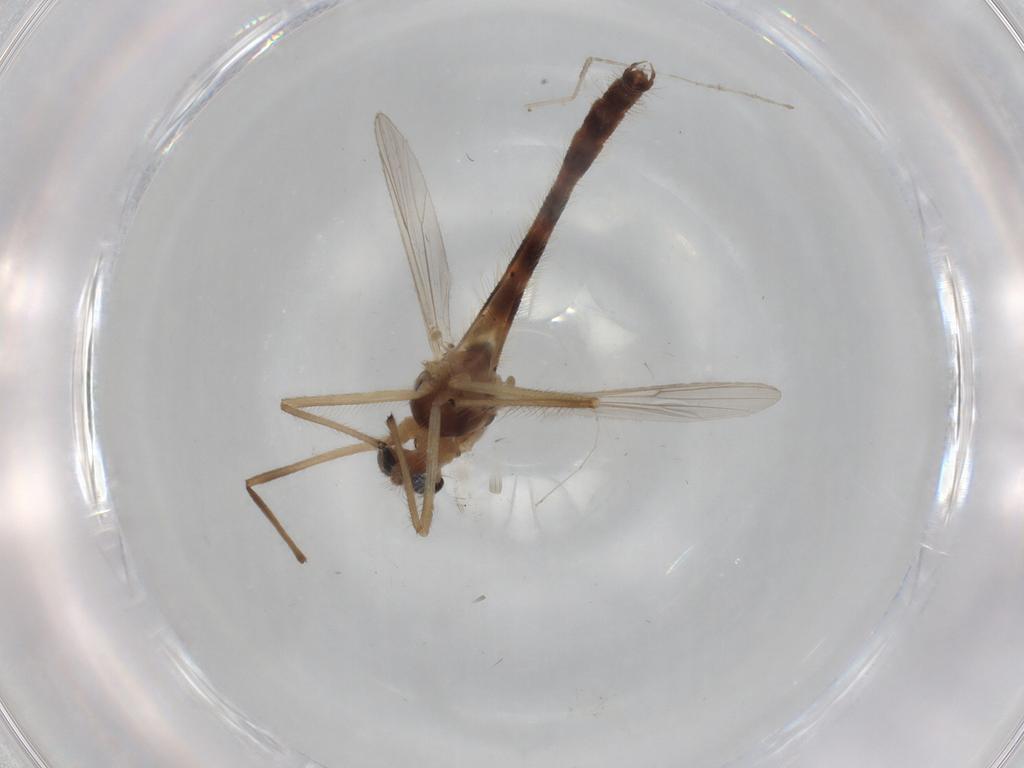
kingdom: Animalia
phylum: Arthropoda
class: Insecta
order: Diptera
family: Chironomidae
